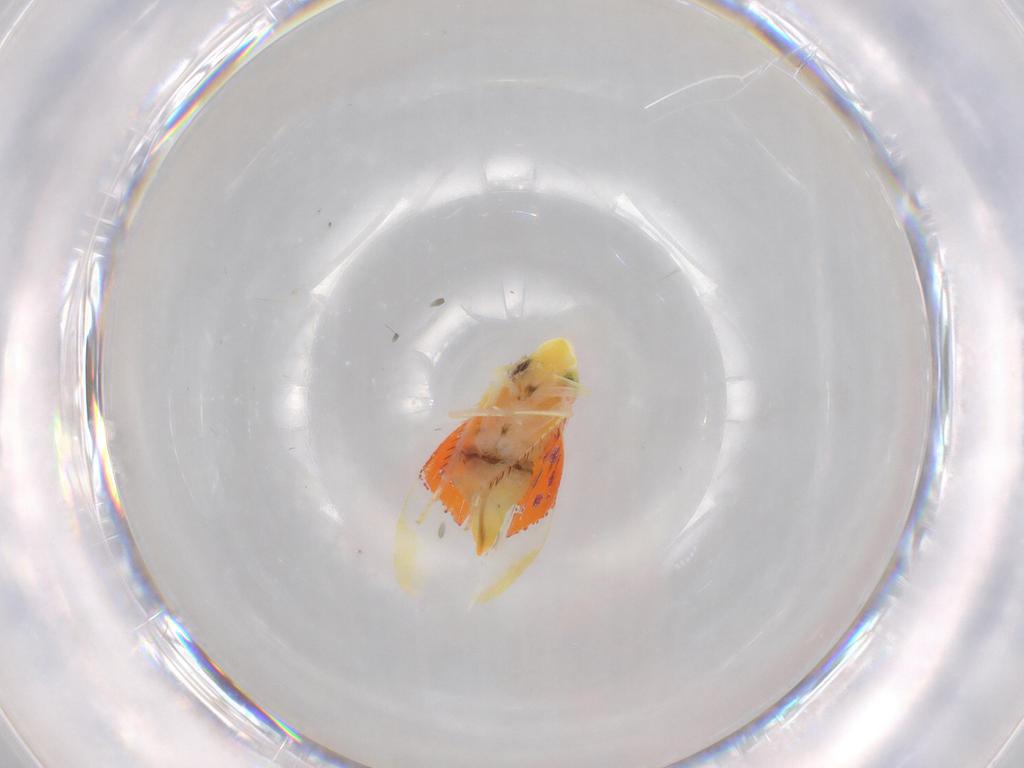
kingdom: Animalia
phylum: Arthropoda
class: Insecta
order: Hemiptera
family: Cicadellidae
